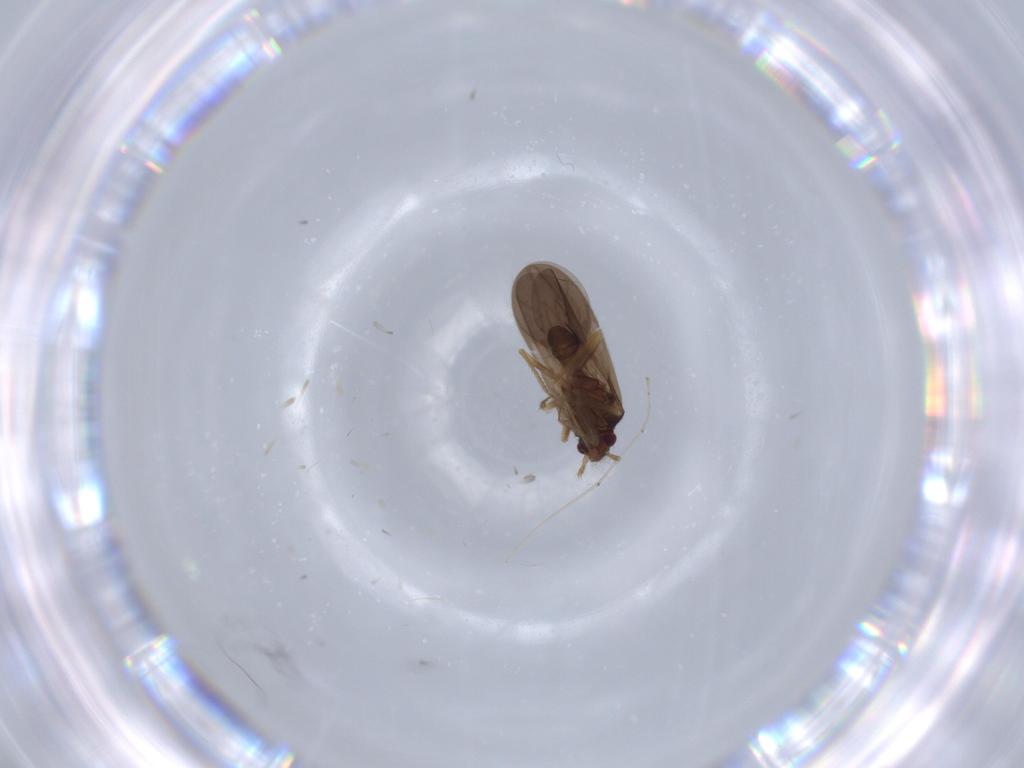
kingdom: Animalia
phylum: Arthropoda
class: Insecta
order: Hemiptera
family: Ceratocombidae
